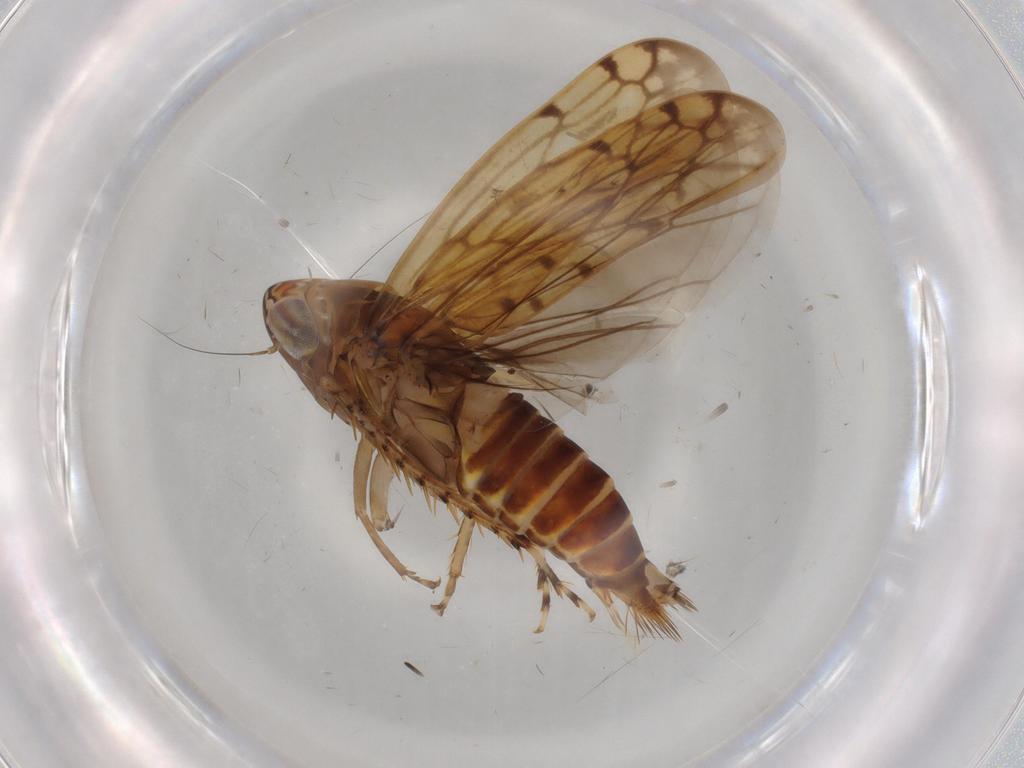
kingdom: Animalia
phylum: Arthropoda
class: Insecta
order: Hemiptera
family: Cicadellidae
